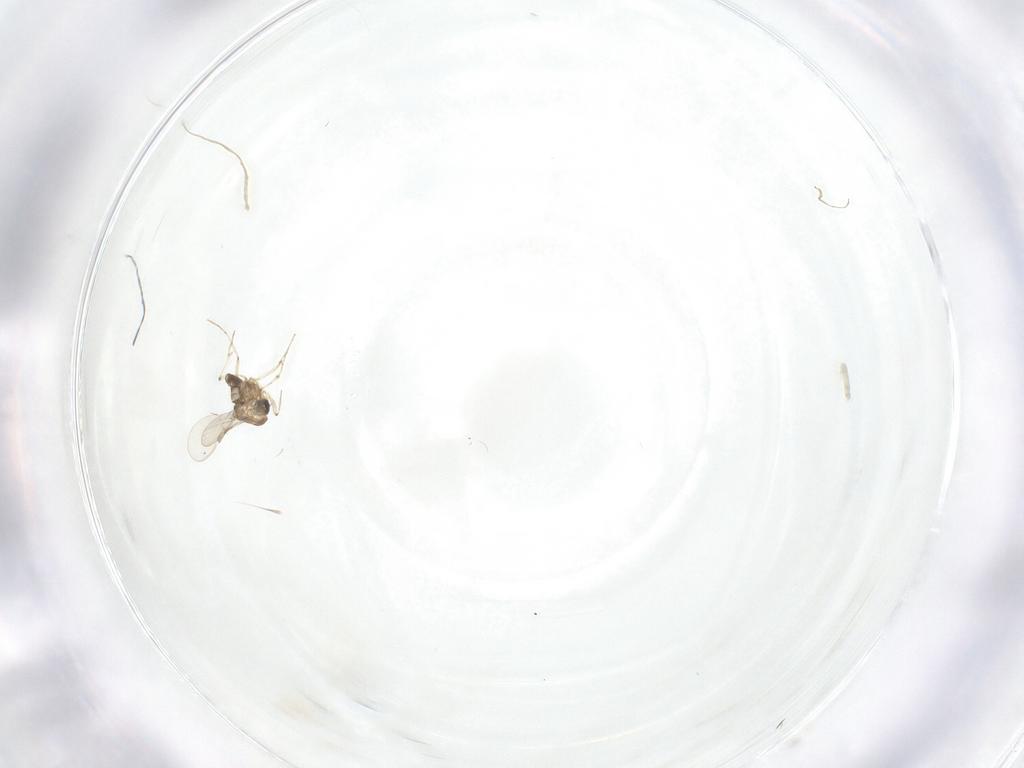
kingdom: Animalia
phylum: Arthropoda
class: Insecta
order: Diptera
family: Chironomidae
